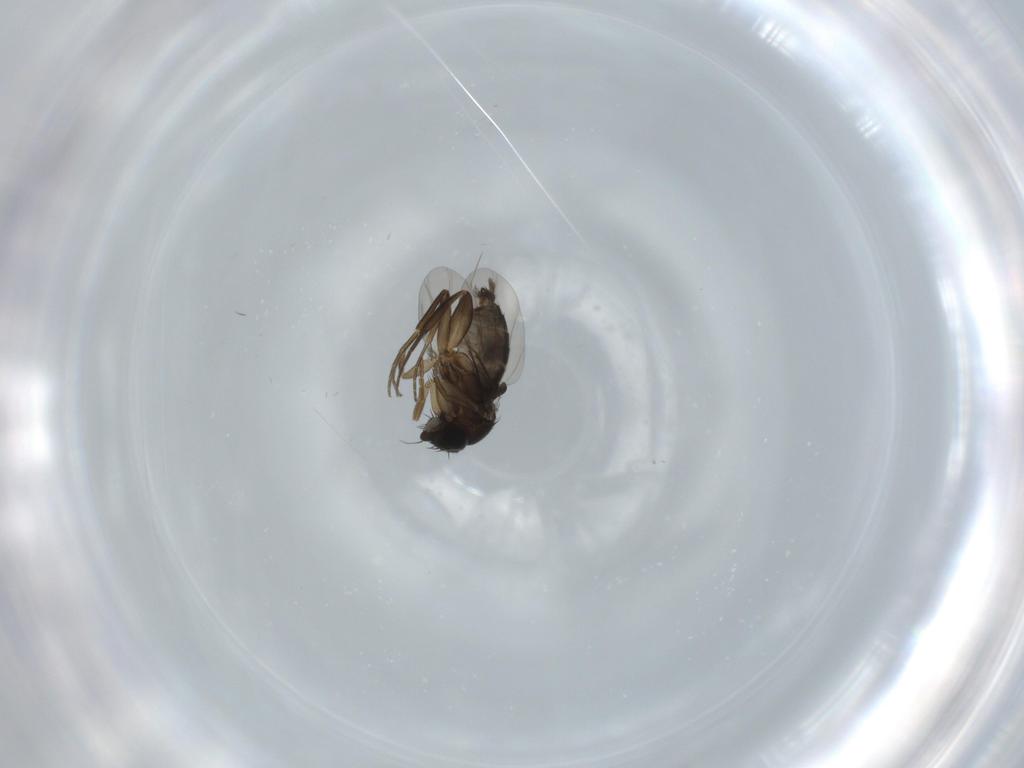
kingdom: Animalia
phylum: Arthropoda
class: Insecta
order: Diptera
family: Phoridae
